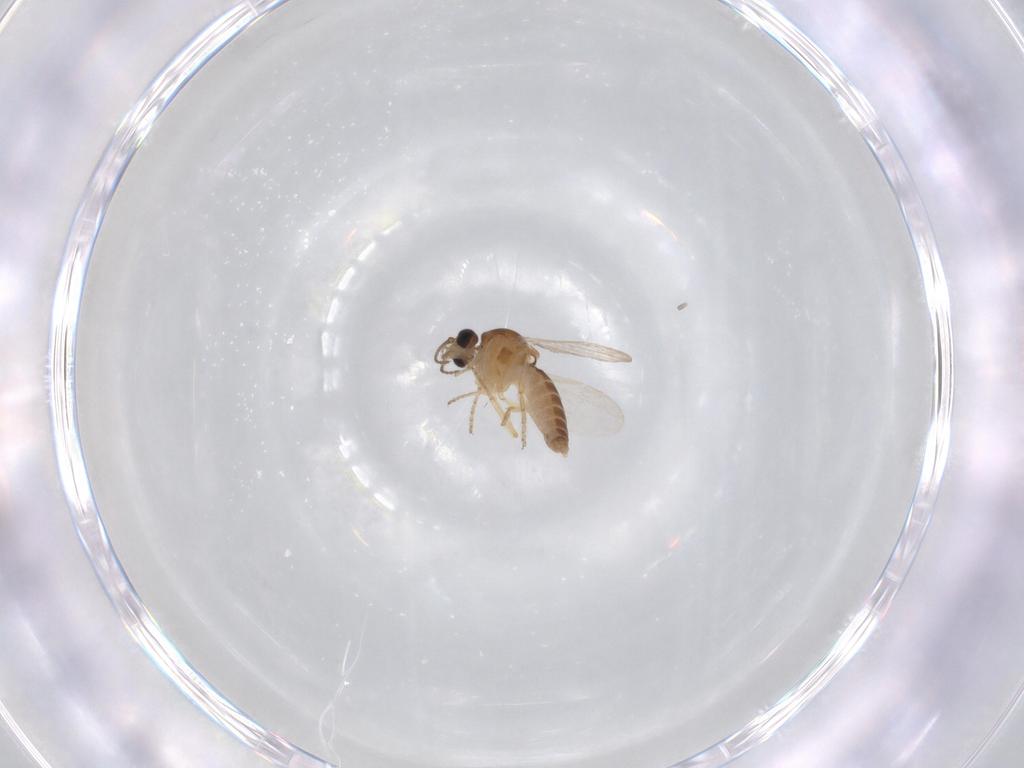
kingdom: Animalia
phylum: Arthropoda
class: Insecta
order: Diptera
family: Ceratopogonidae
